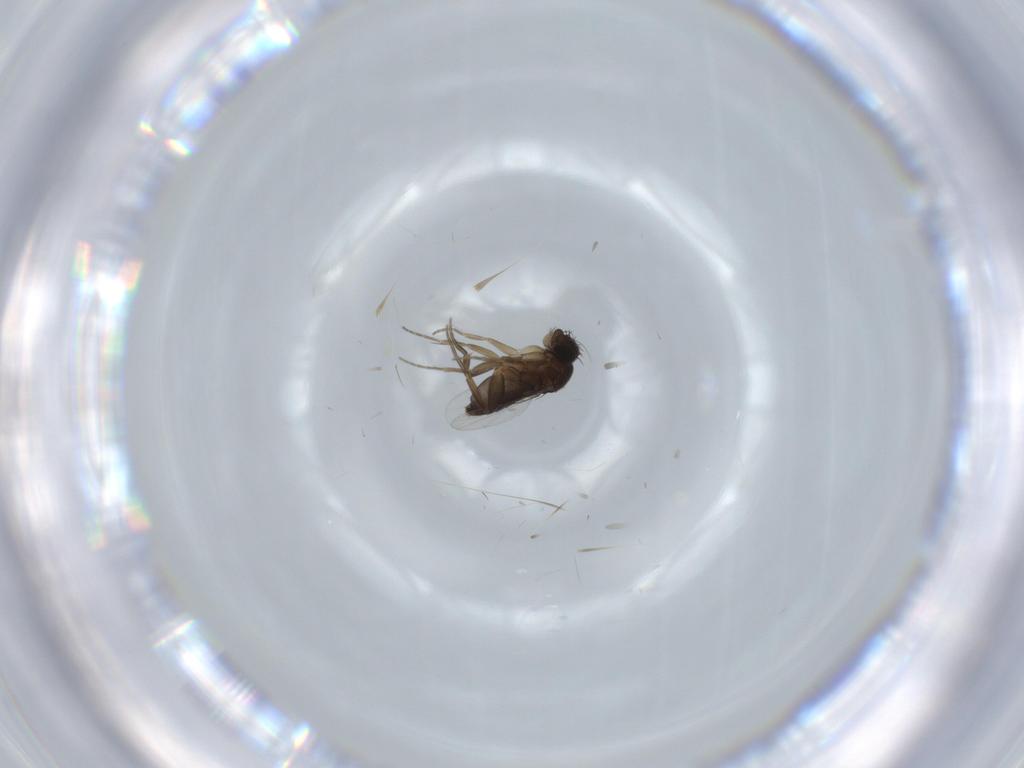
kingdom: Animalia
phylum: Arthropoda
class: Insecta
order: Diptera
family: Phoridae
